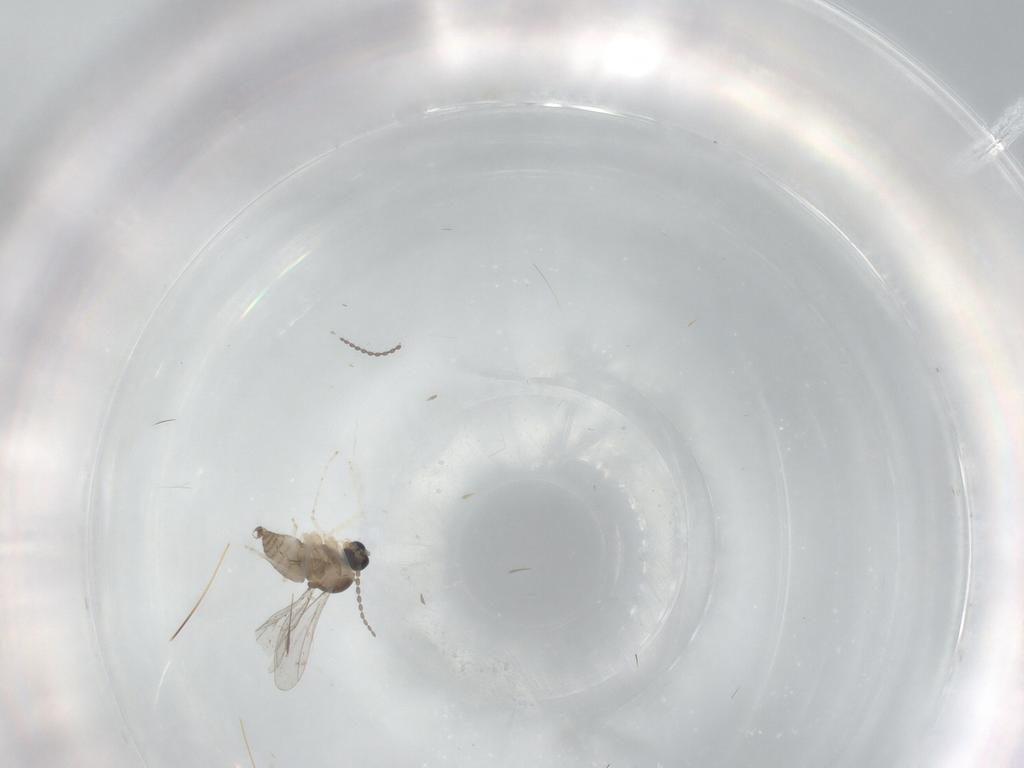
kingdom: Animalia
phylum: Arthropoda
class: Insecta
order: Diptera
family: Cecidomyiidae
